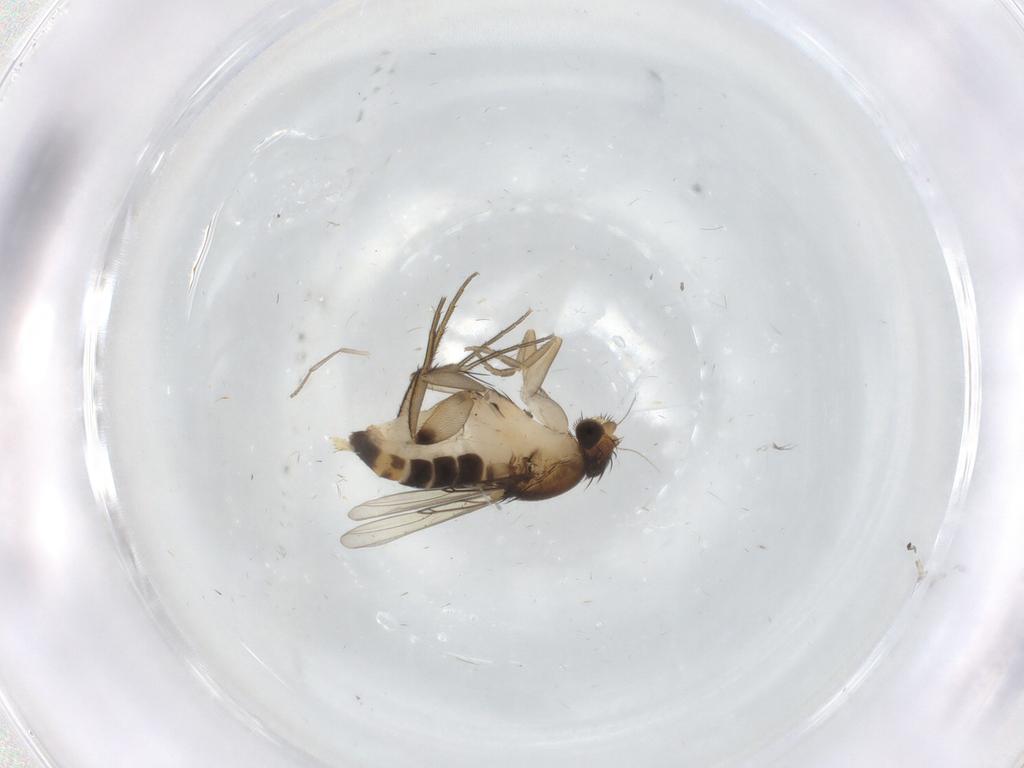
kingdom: Animalia
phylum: Arthropoda
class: Insecta
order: Diptera
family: Phoridae
